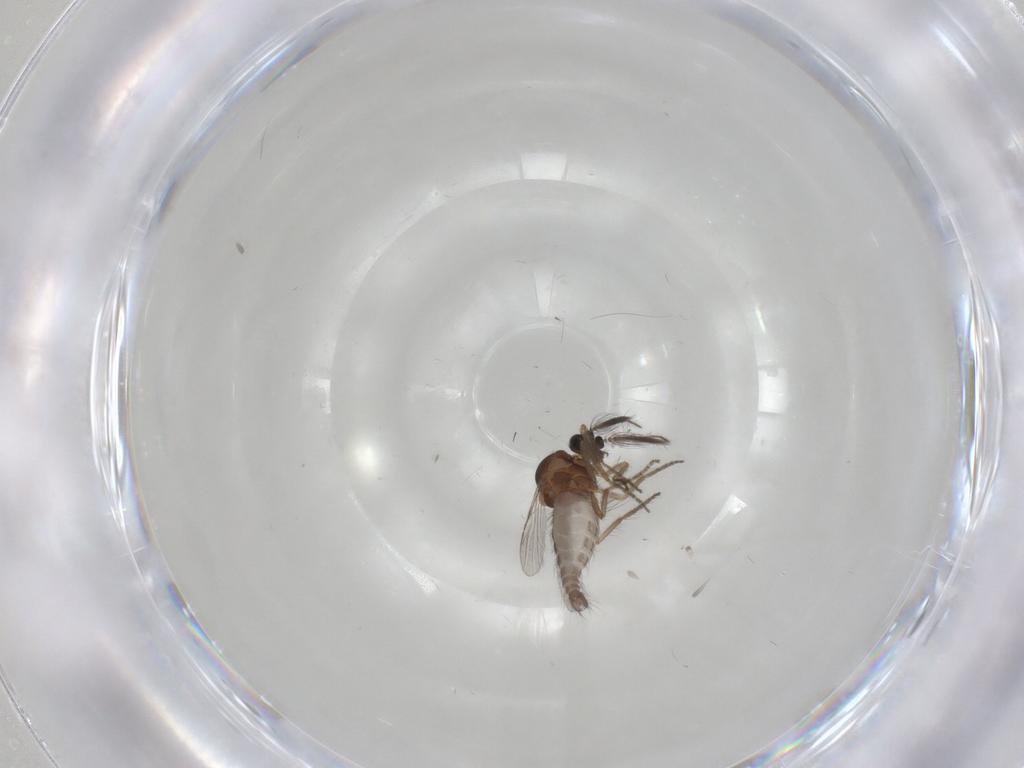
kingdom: Animalia
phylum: Arthropoda
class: Insecta
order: Diptera
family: Ceratopogonidae
